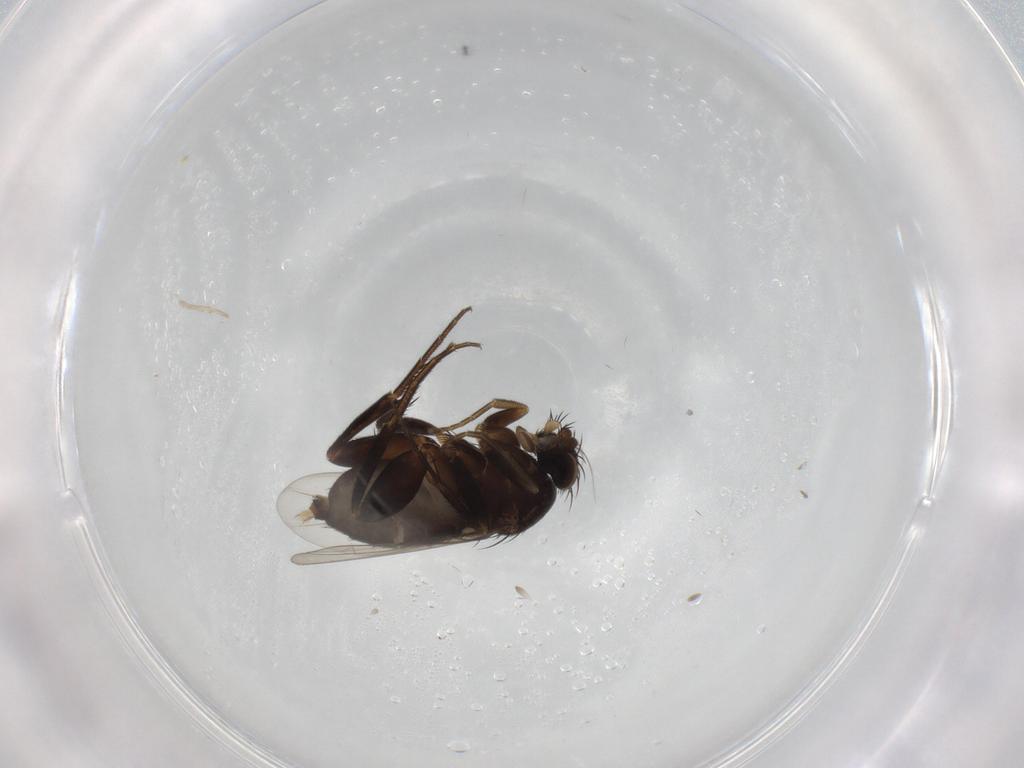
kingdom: Animalia
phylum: Arthropoda
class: Insecta
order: Diptera
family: Phoridae
